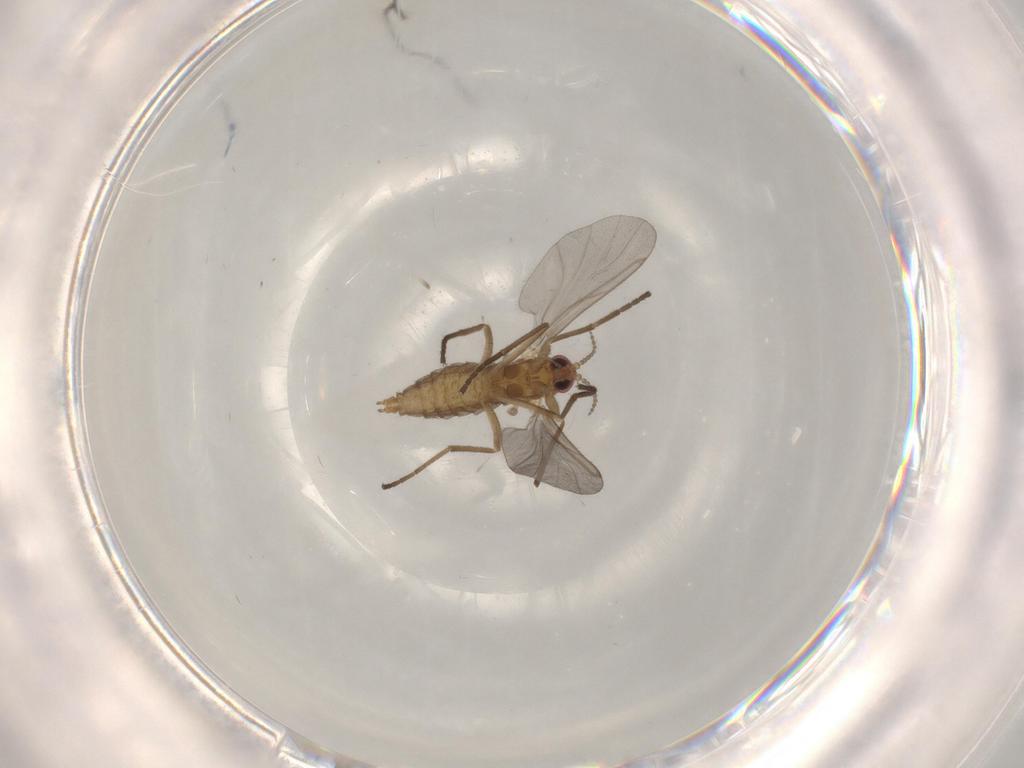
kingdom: Animalia
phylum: Arthropoda
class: Insecta
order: Diptera
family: Cecidomyiidae
